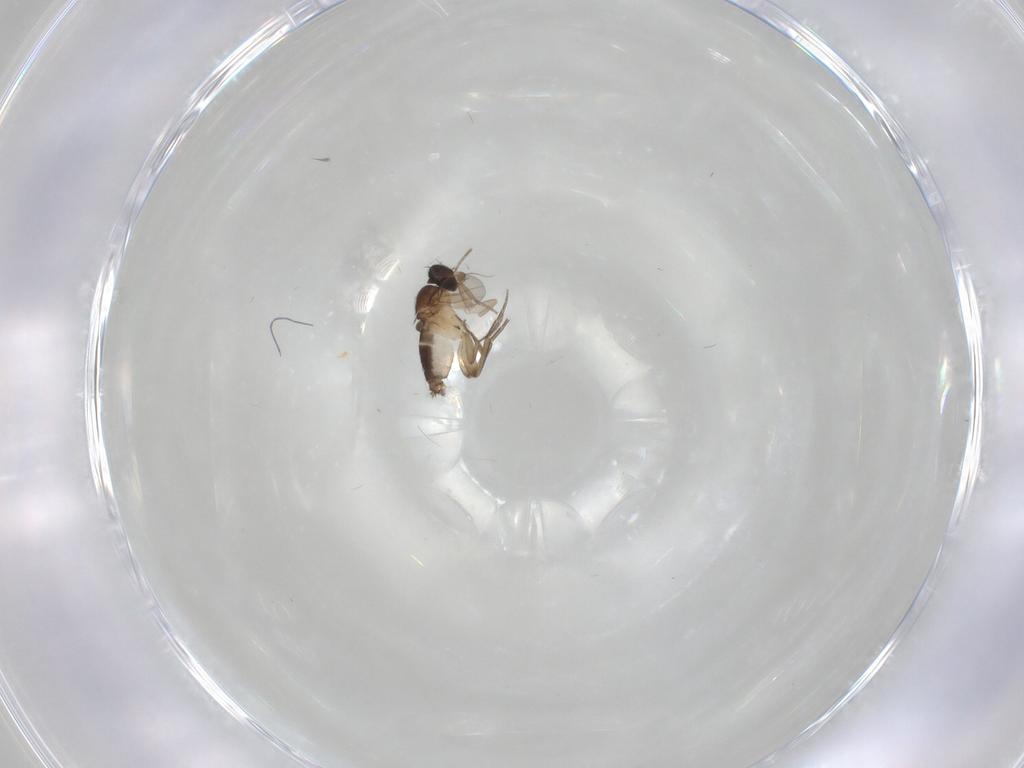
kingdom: Animalia
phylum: Arthropoda
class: Insecta
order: Diptera
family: Phoridae
